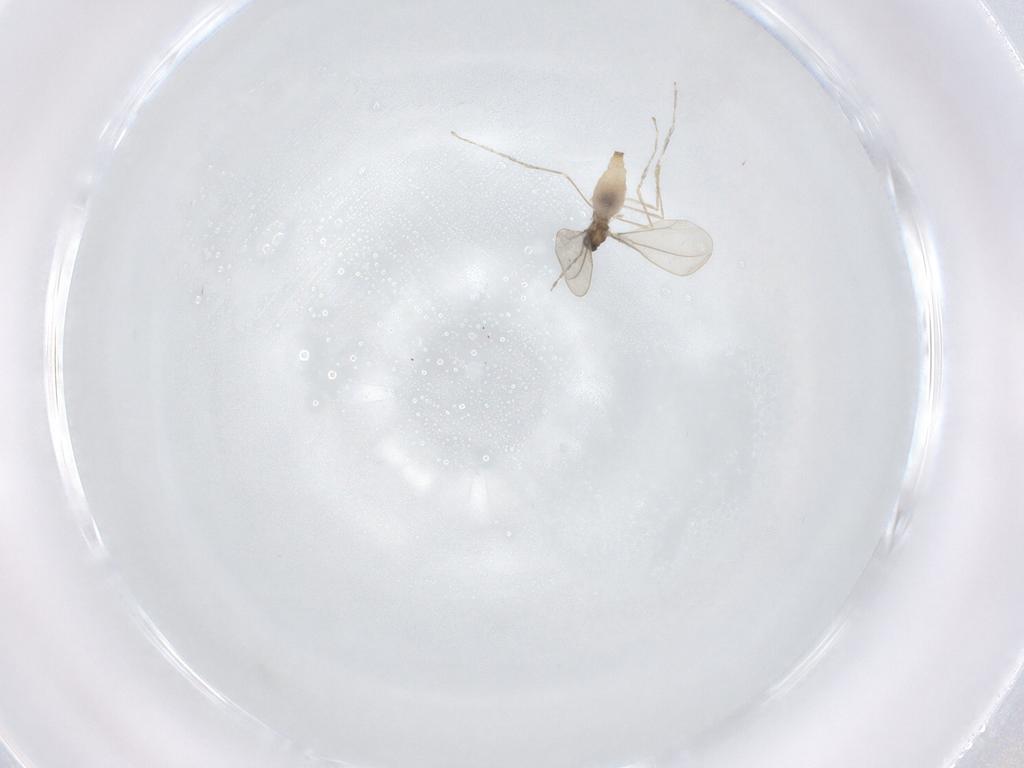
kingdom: Animalia
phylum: Arthropoda
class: Insecta
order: Diptera
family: Cecidomyiidae
